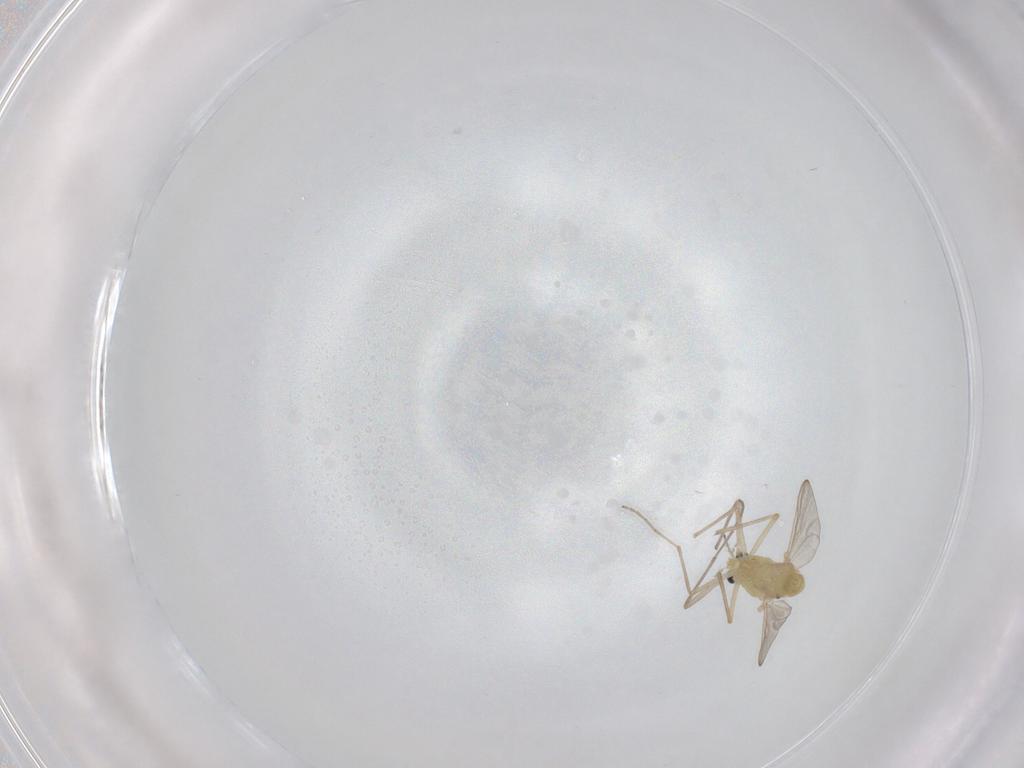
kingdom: Animalia
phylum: Arthropoda
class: Insecta
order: Diptera
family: Chironomidae
